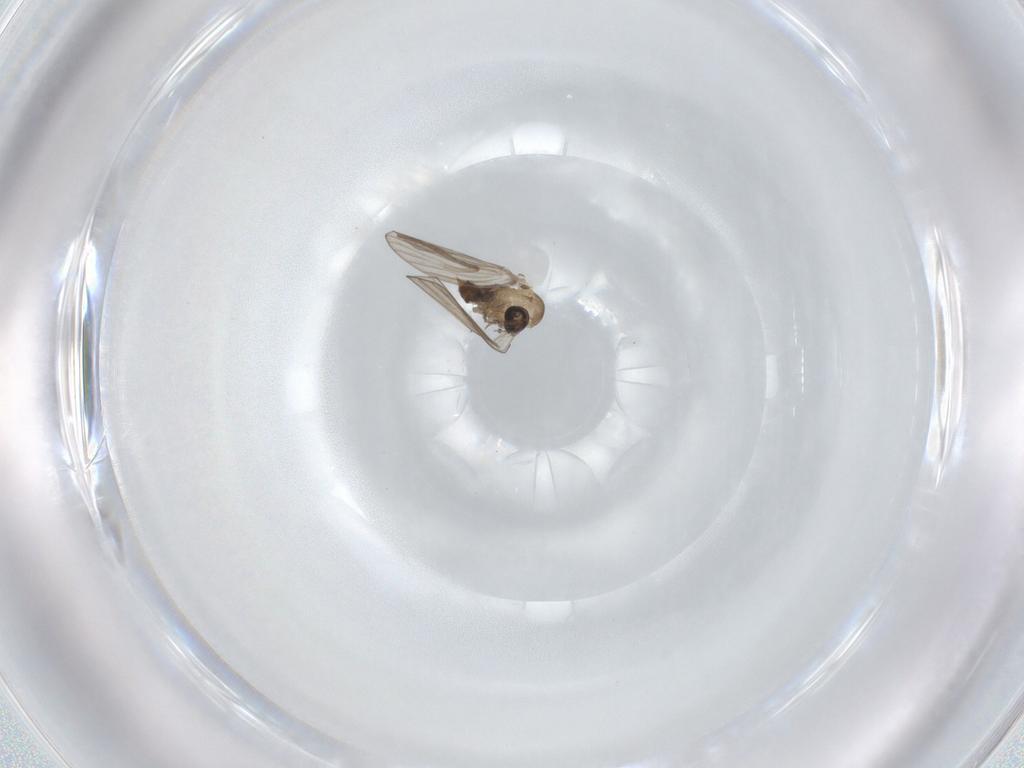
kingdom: Animalia
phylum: Arthropoda
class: Insecta
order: Diptera
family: Psychodidae
